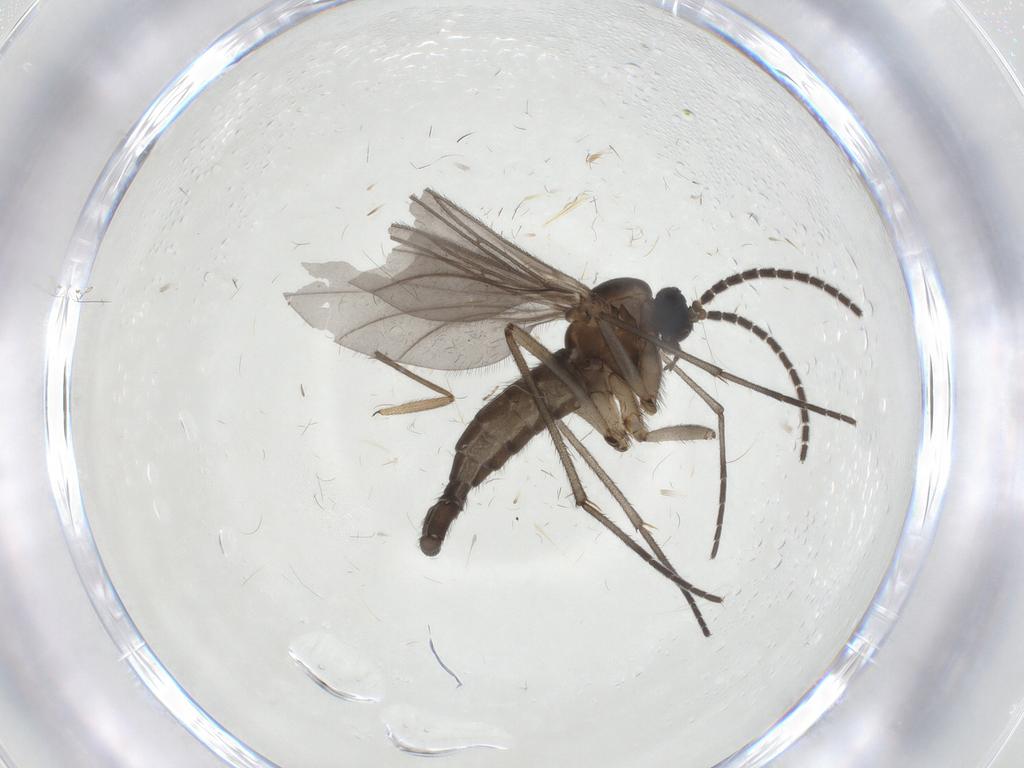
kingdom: Animalia
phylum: Arthropoda
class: Insecta
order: Diptera
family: Sciaridae
